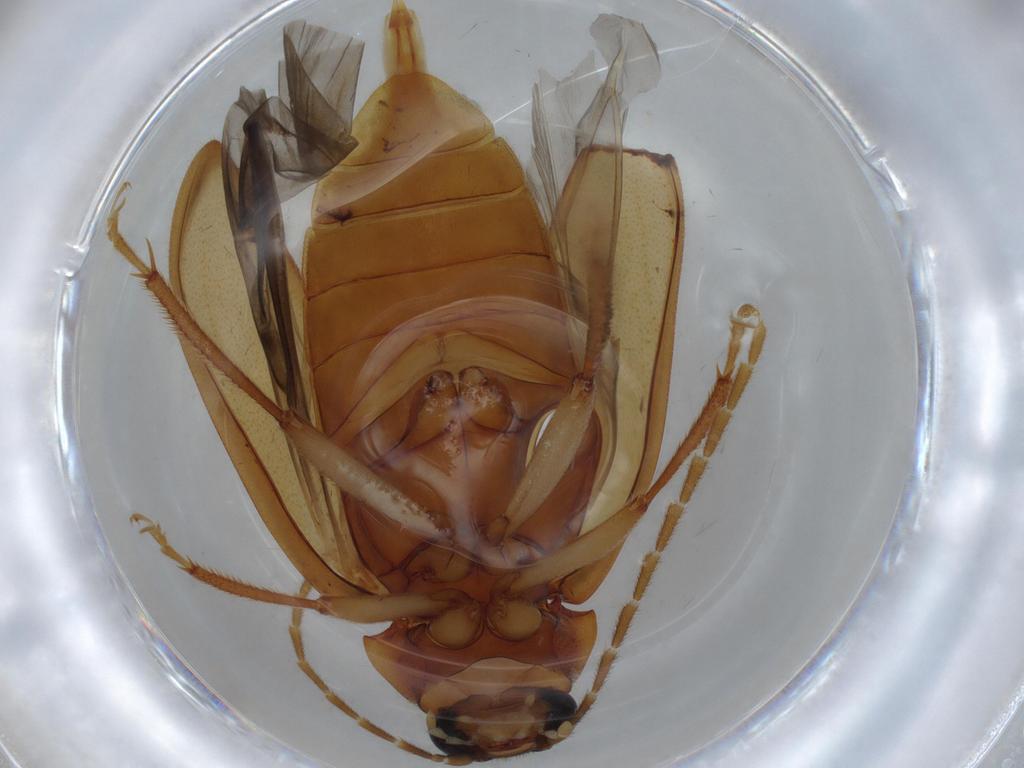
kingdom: Animalia
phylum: Arthropoda
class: Insecta
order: Coleoptera
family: Ptilodactylidae
